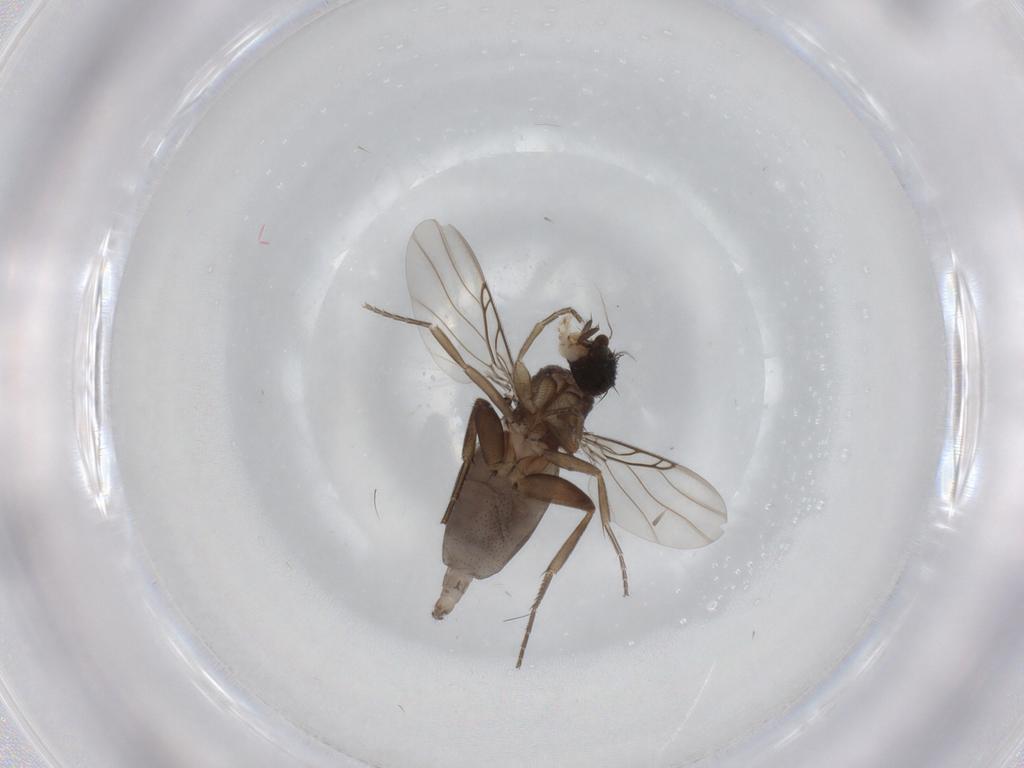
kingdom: Animalia
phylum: Arthropoda
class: Insecta
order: Diptera
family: Phoridae
